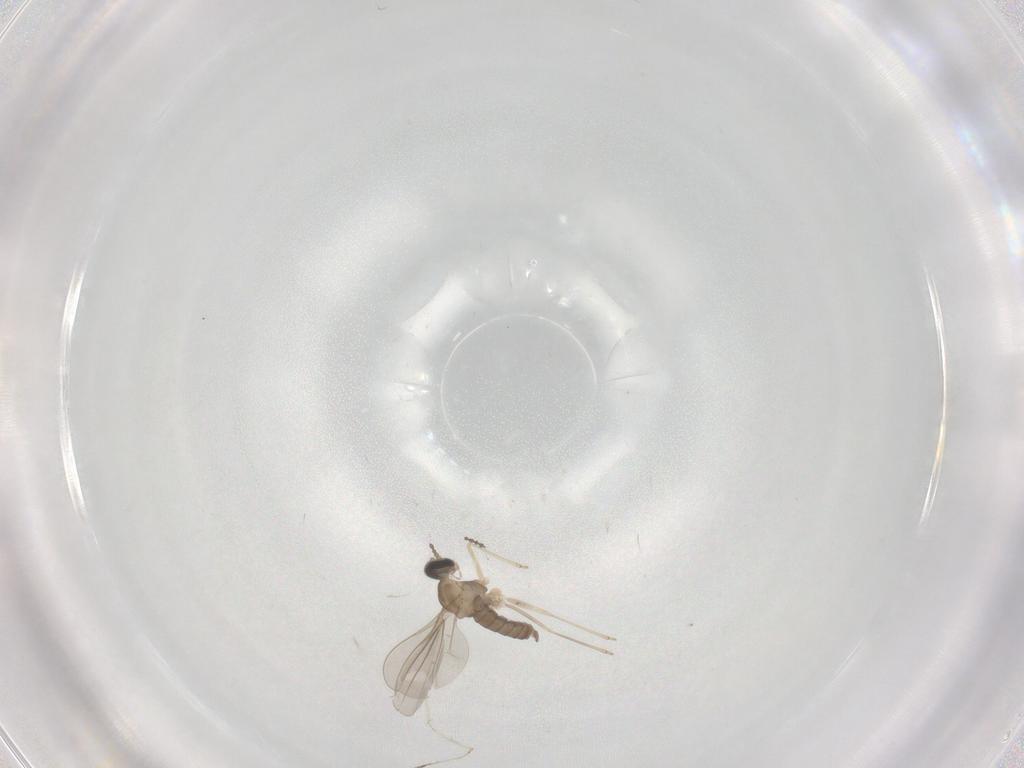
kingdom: Animalia
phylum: Arthropoda
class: Insecta
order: Diptera
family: Cecidomyiidae
